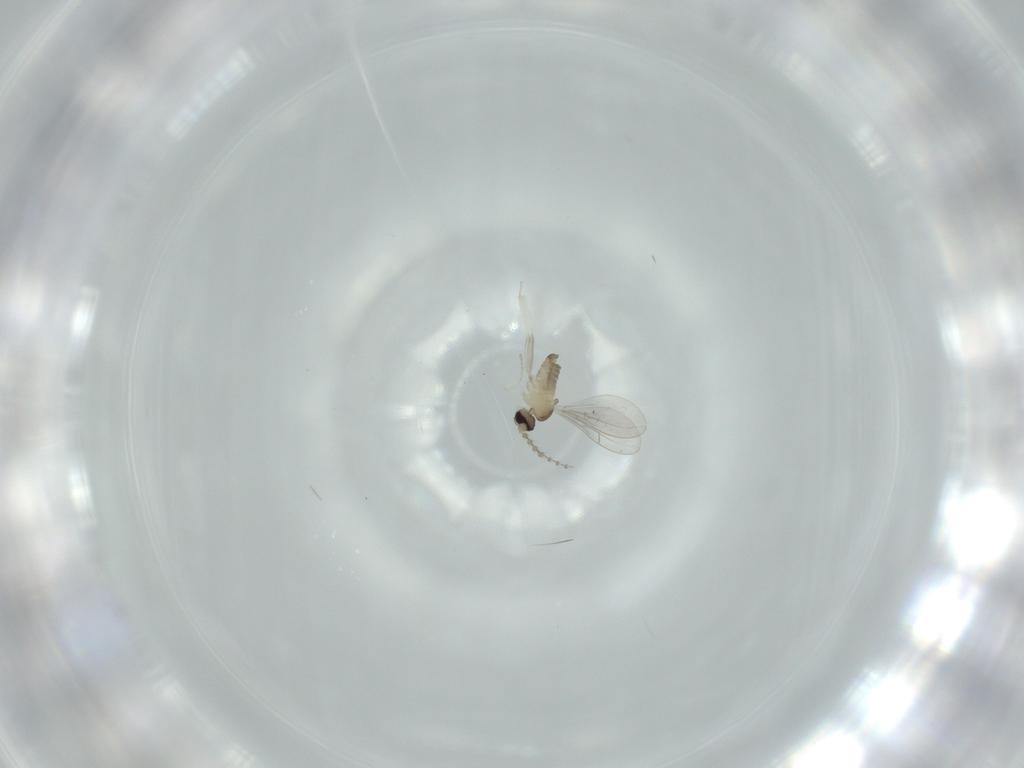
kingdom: Animalia
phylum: Arthropoda
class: Insecta
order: Diptera
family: Cecidomyiidae
